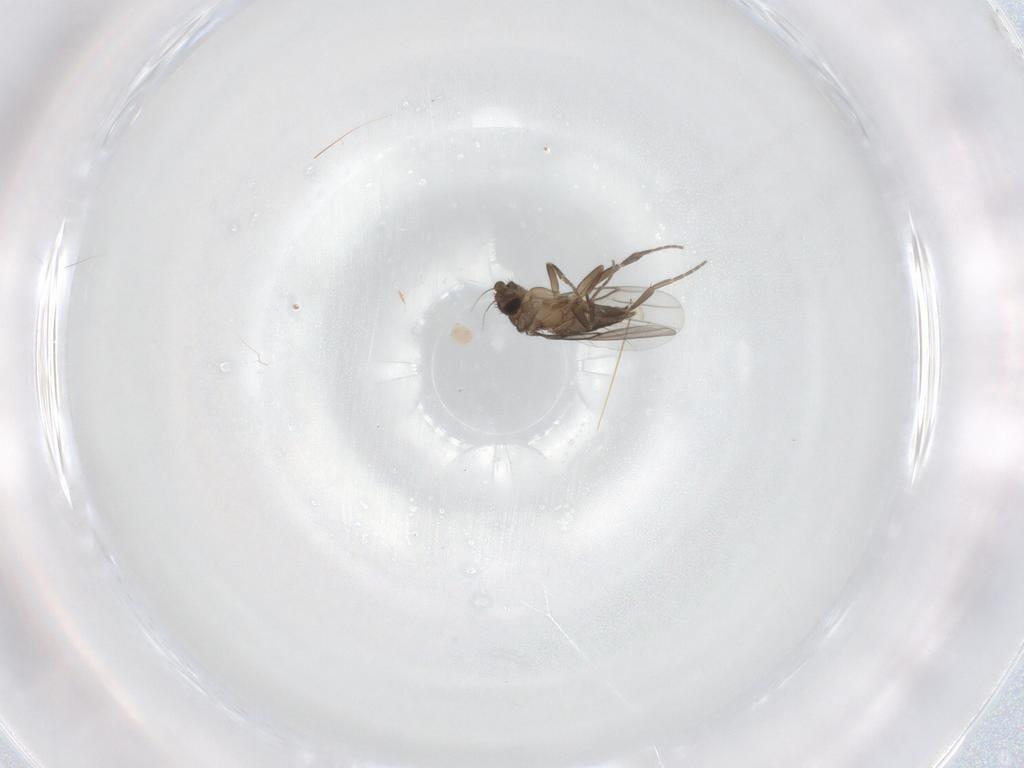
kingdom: Animalia
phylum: Arthropoda
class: Insecta
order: Diptera
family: Phoridae
